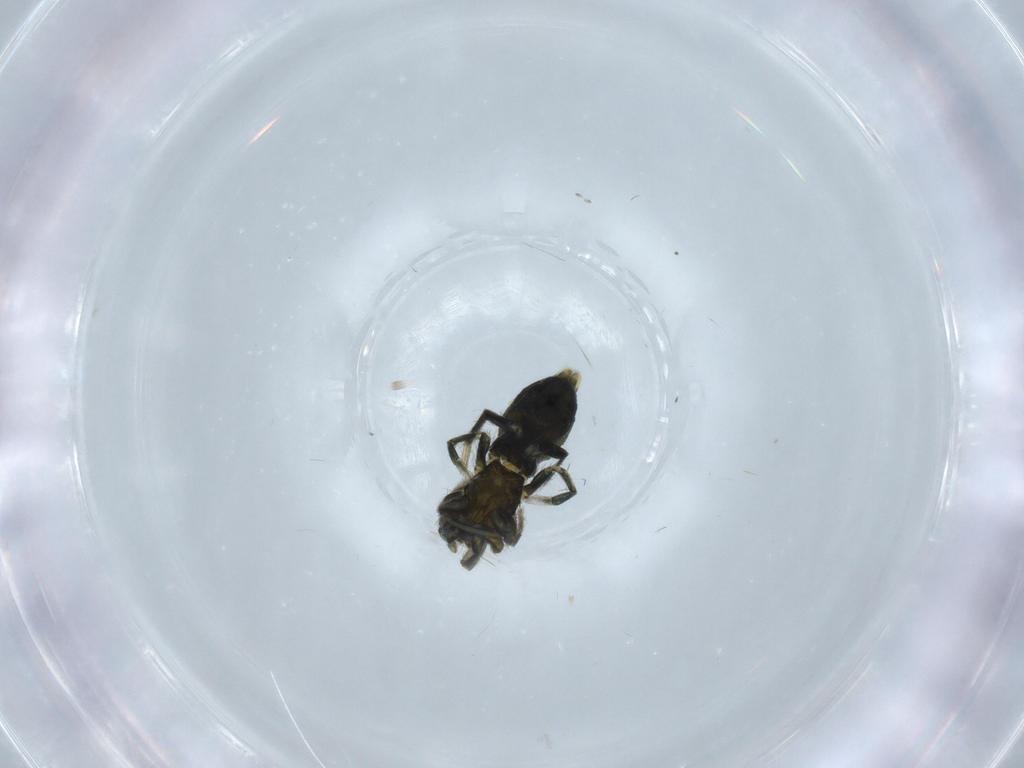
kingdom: Animalia
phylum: Arthropoda
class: Arachnida
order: Araneae
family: Gnaphosidae
